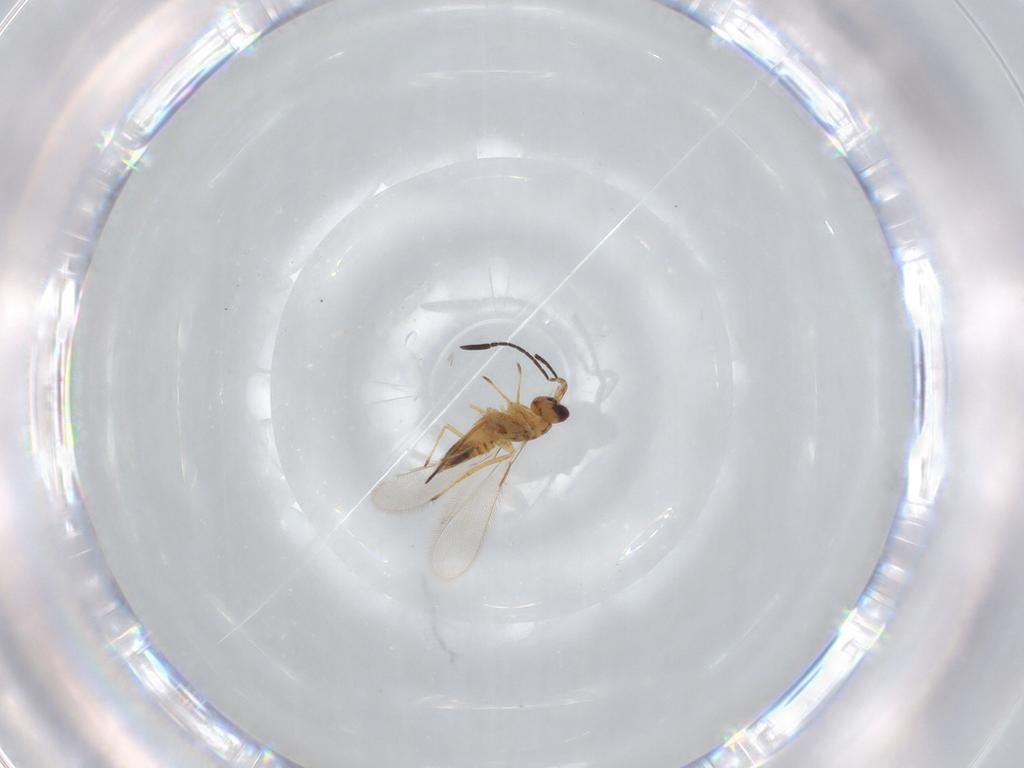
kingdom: Animalia
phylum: Arthropoda
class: Insecta
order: Hymenoptera
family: Mymaridae
